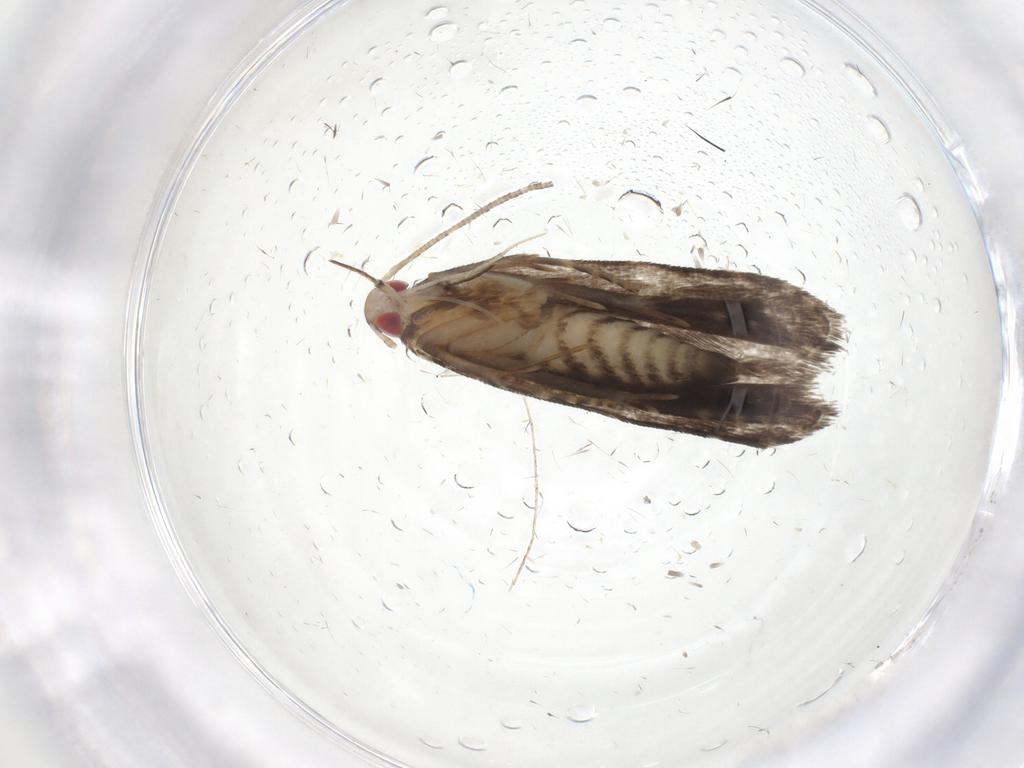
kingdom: Animalia
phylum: Arthropoda
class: Insecta
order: Lepidoptera
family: Gelechiidae
